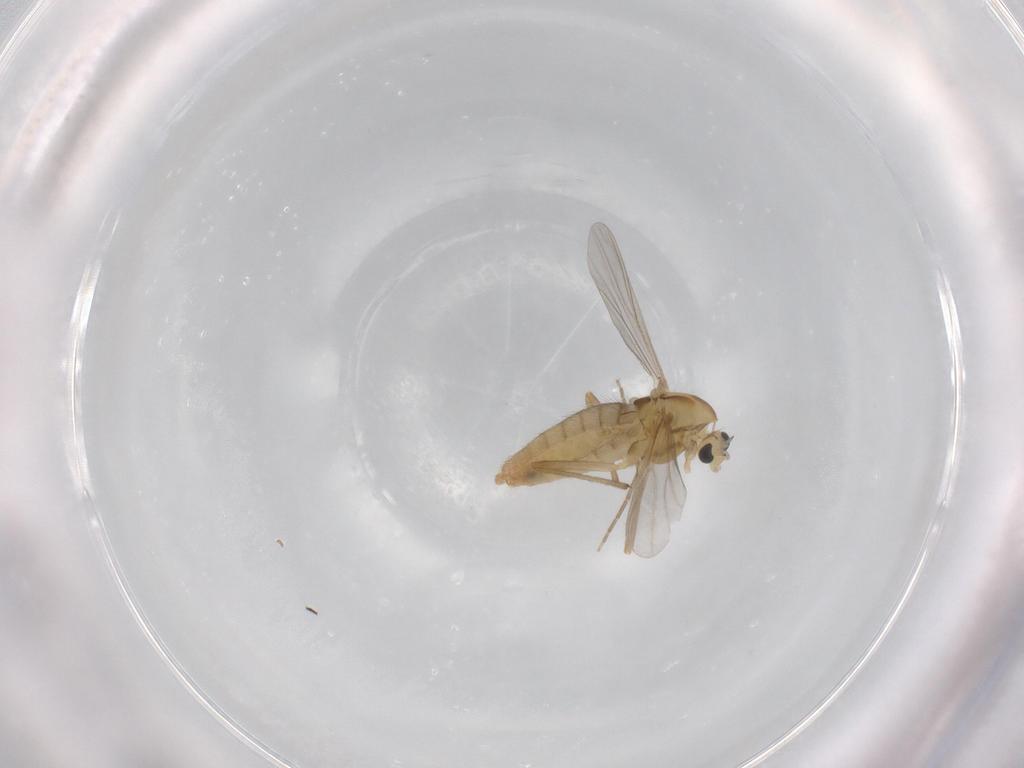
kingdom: Animalia
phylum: Arthropoda
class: Insecta
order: Diptera
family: Chironomidae
